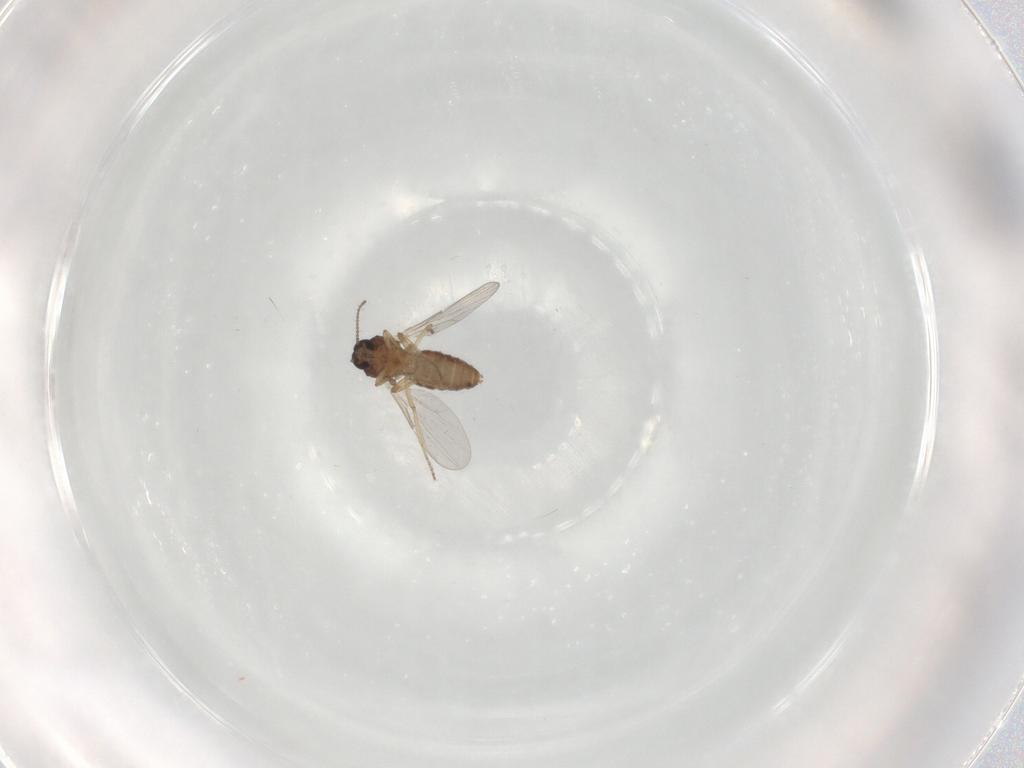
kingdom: Animalia
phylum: Arthropoda
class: Insecta
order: Diptera
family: Ceratopogonidae
